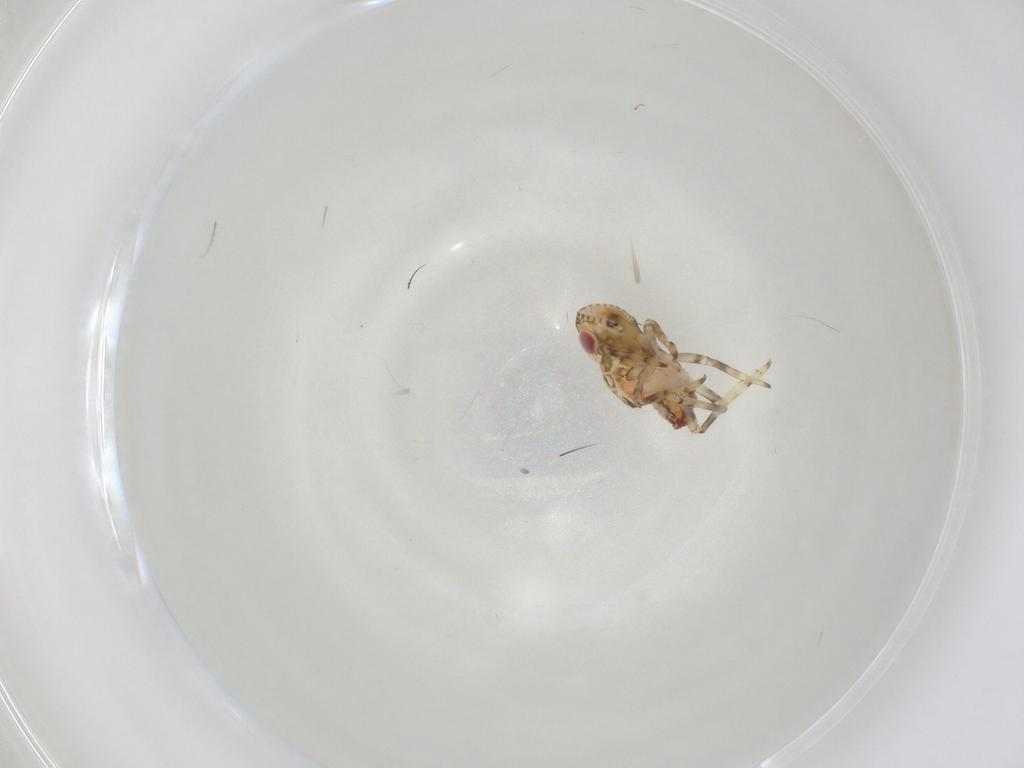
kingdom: Animalia
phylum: Arthropoda
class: Insecta
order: Hemiptera
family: Tropiduchidae
